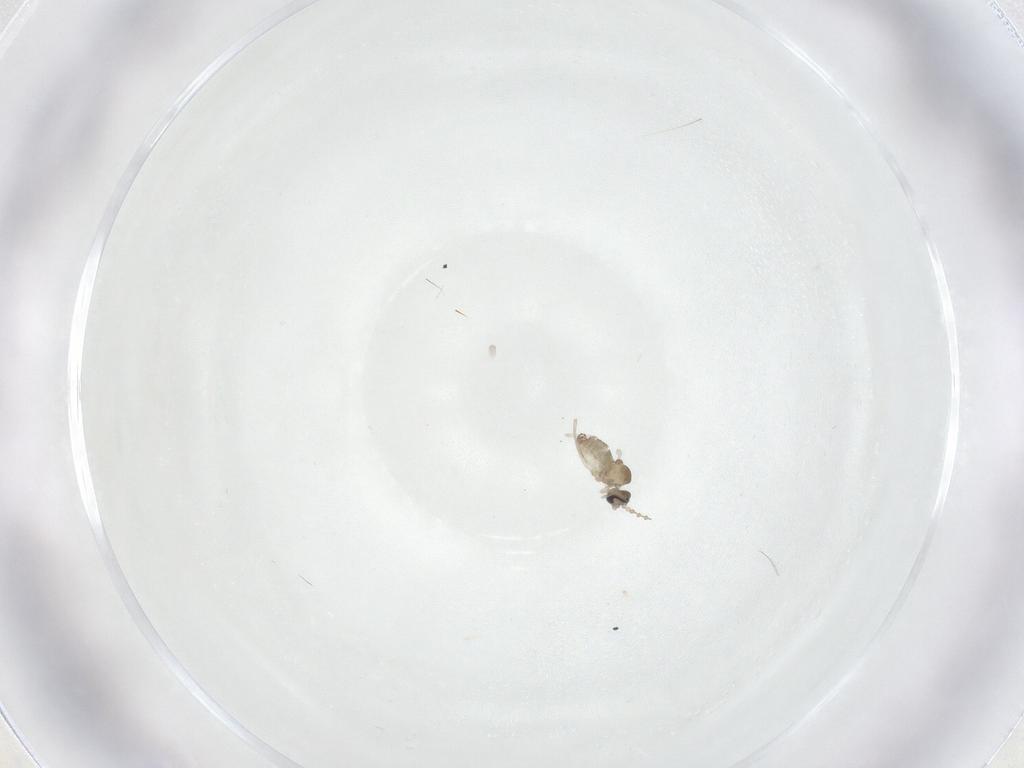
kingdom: Animalia
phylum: Arthropoda
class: Insecta
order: Diptera
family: Cecidomyiidae
